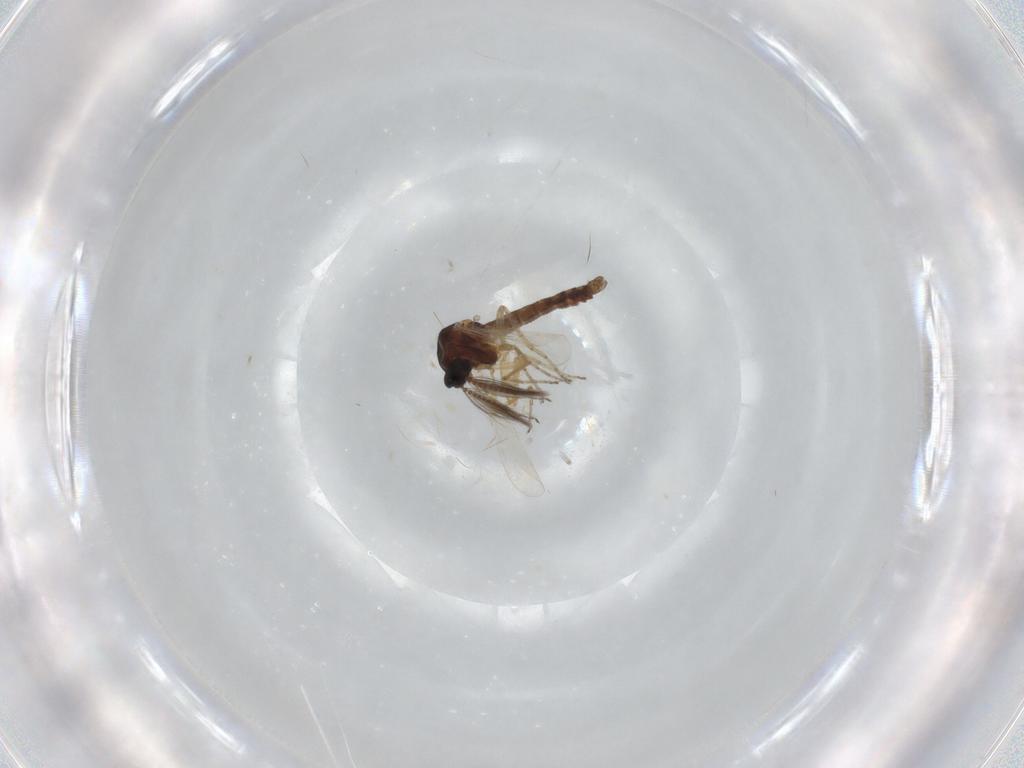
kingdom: Animalia
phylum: Arthropoda
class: Insecta
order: Diptera
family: Ceratopogonidae
